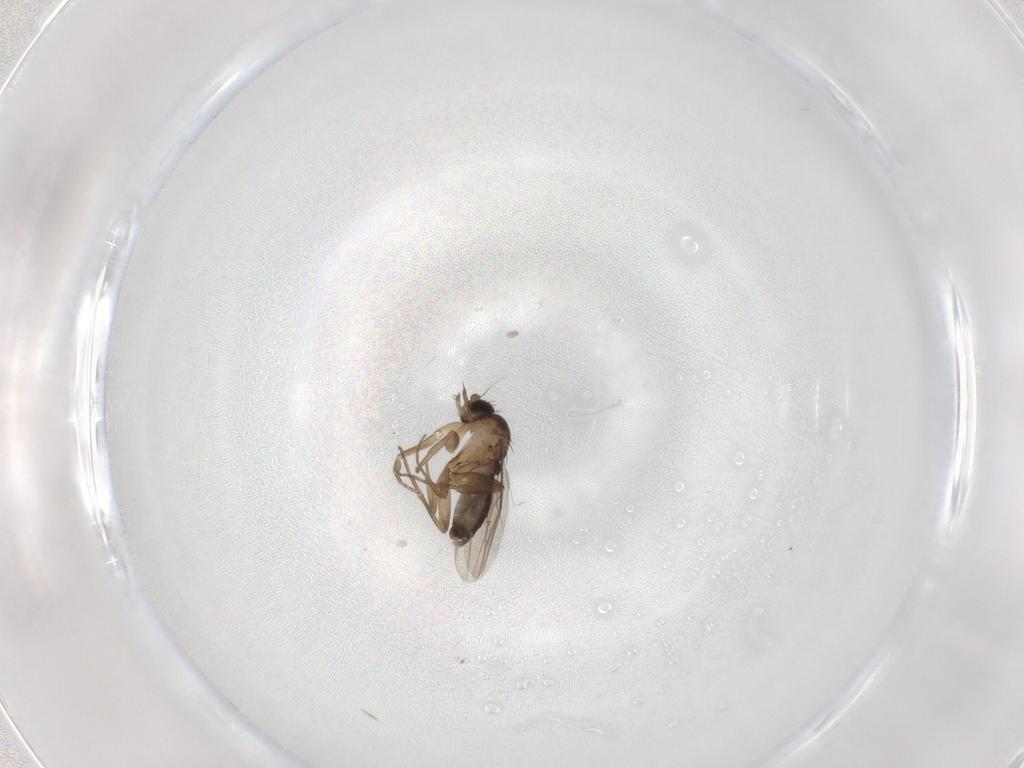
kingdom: Animalia
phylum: Arthropoda
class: Insecta
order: Diptera
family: Phoridae
